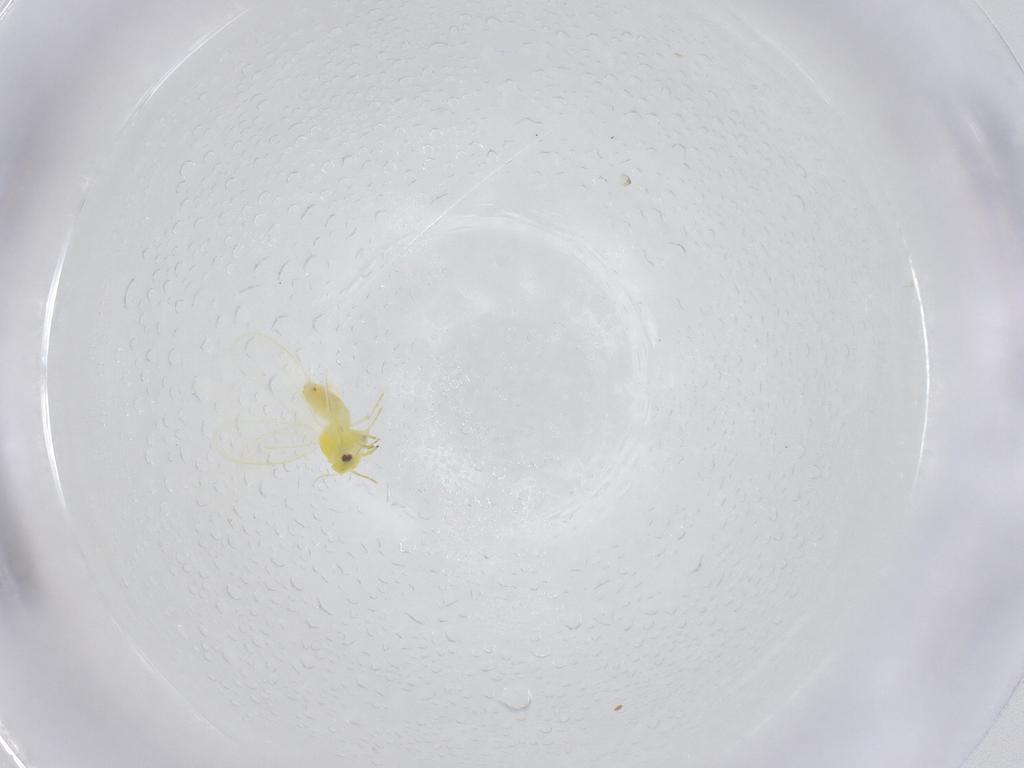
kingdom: Animalia
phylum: Arthropoda
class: Insecta
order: Hemiptera
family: Aleyrodidae
